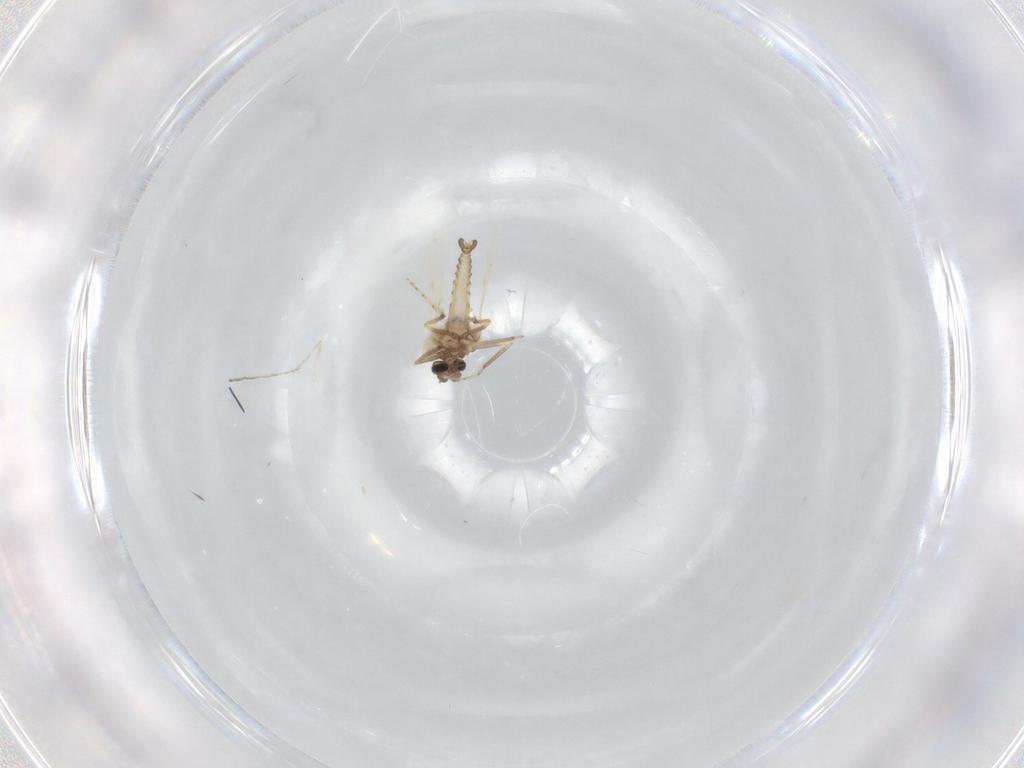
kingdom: Animalia
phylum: Arthropoda
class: Insecta
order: Diptera
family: Ceratopogonidae
